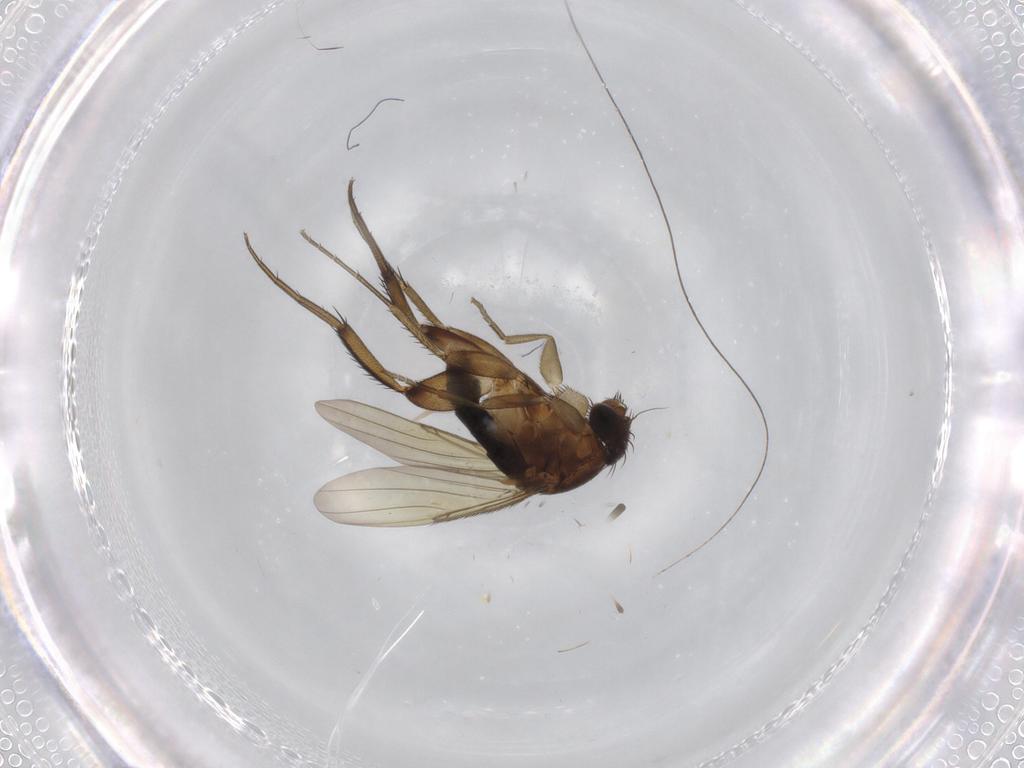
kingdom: Animalia
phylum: Arthropoda
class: Insecta
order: Diptera
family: Phoridae
